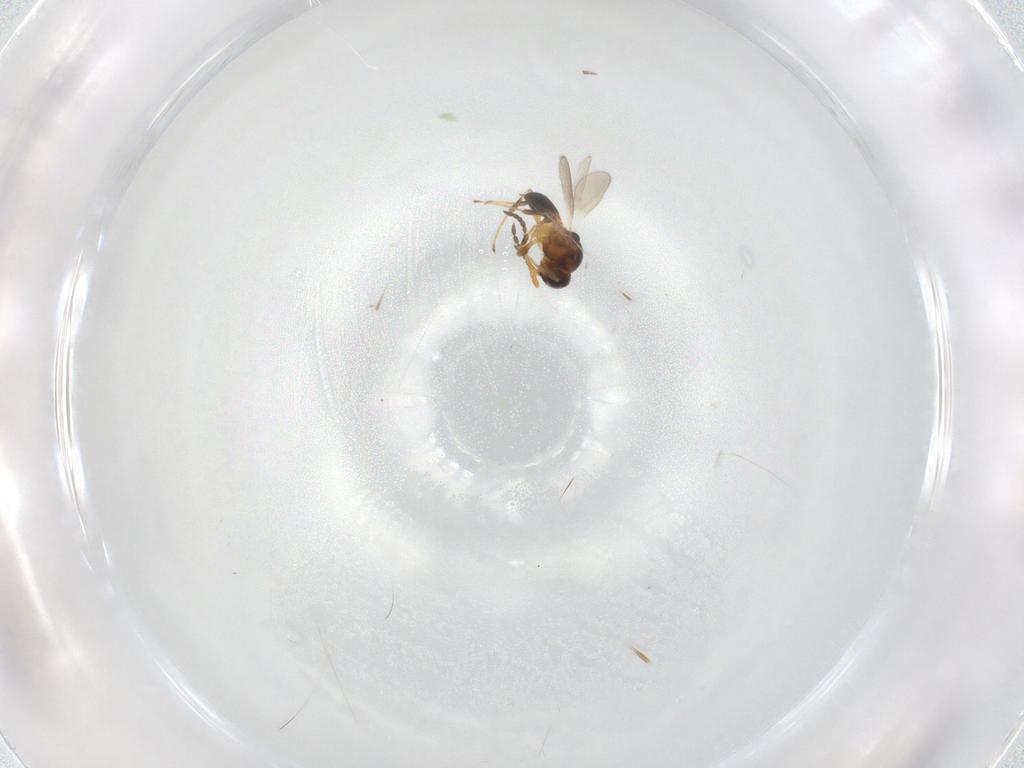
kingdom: Animalia
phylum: Arthropoda
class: Insecta
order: Hymenoptera
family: Platygastridae
